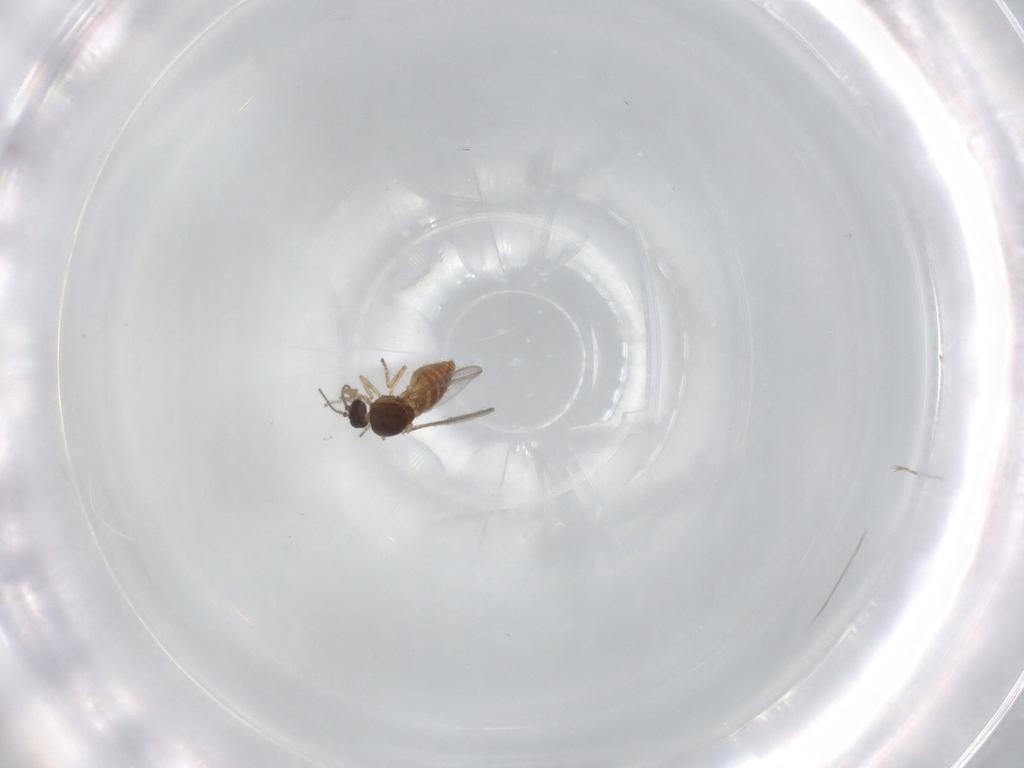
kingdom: Animalia
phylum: Arthropoda
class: Insecta
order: Diptera
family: Ceratopogonidae
